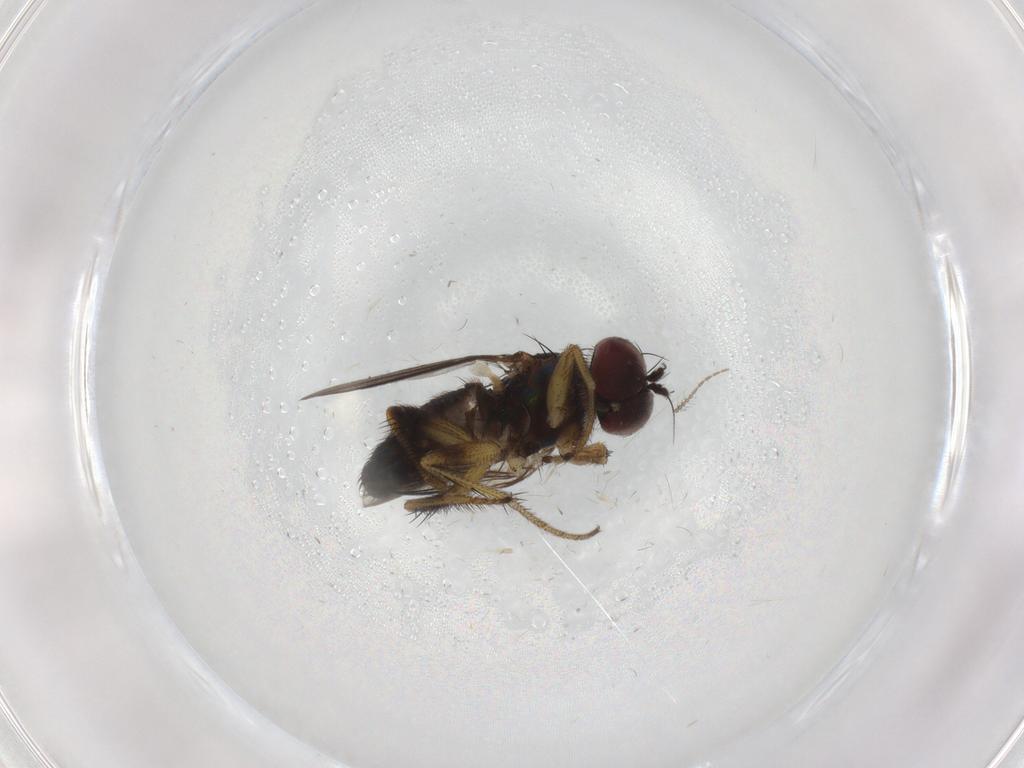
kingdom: Animalia
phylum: Arthropoda
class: Insecta
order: Diptera
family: Dolichopodidae
